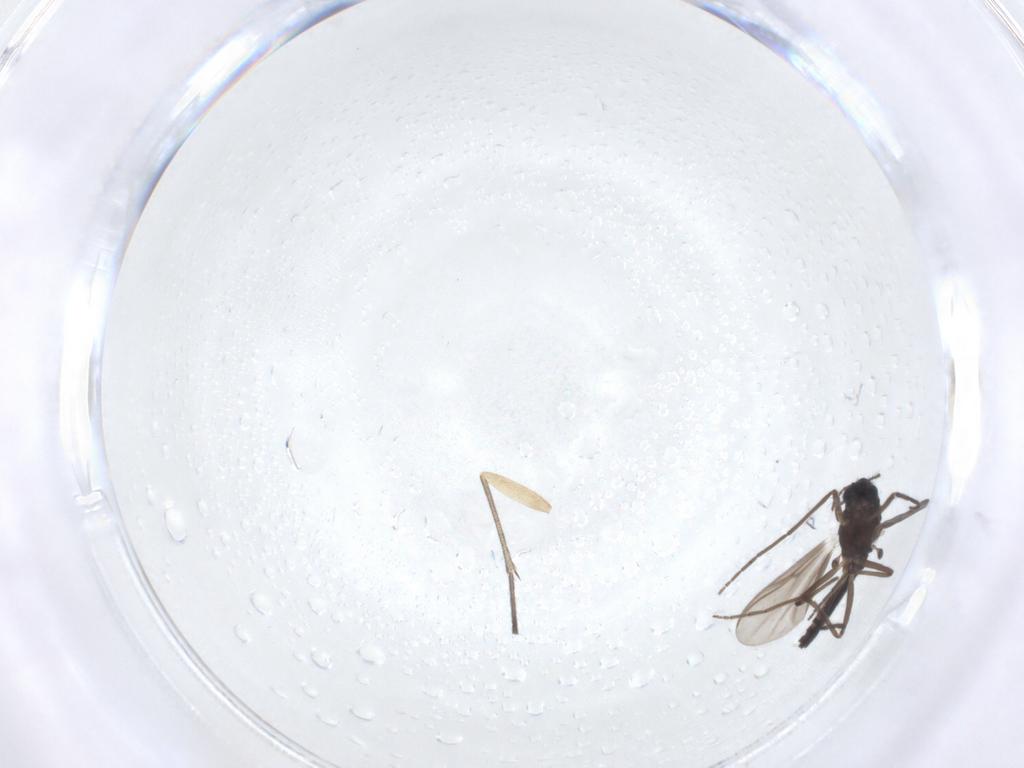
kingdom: Animalia
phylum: Arthropoda
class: Insecta
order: Diptera
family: Chironomidae
